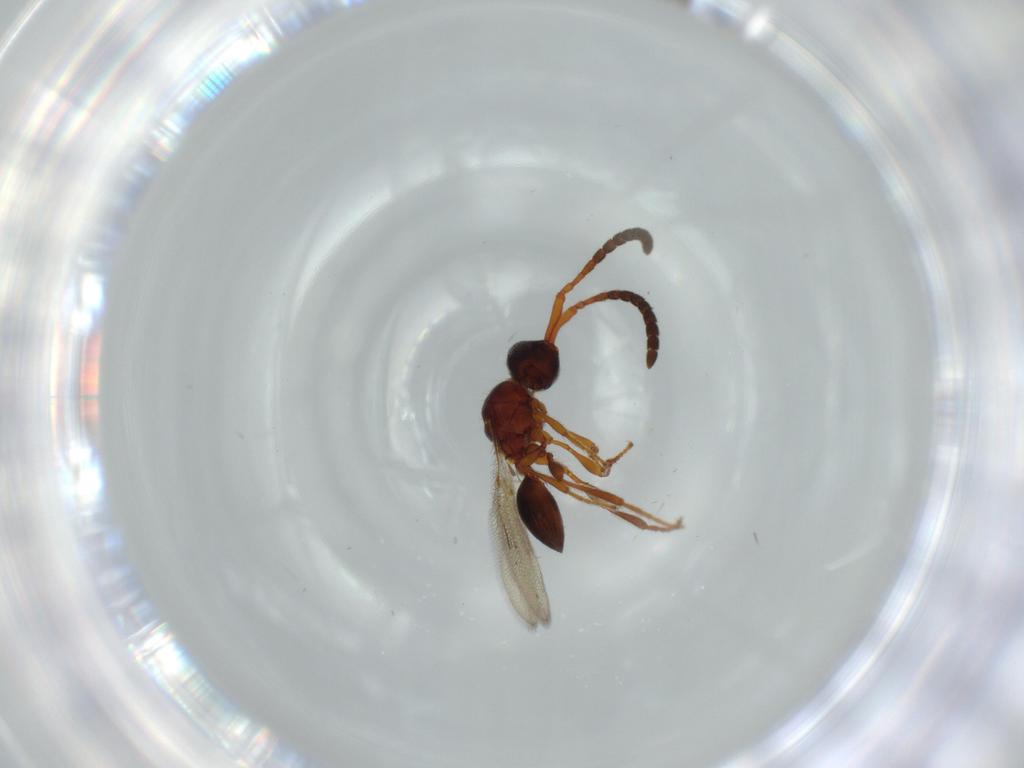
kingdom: Animalia
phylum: Arthropoda
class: Insecta
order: Hymenoptera
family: Diapriidae
